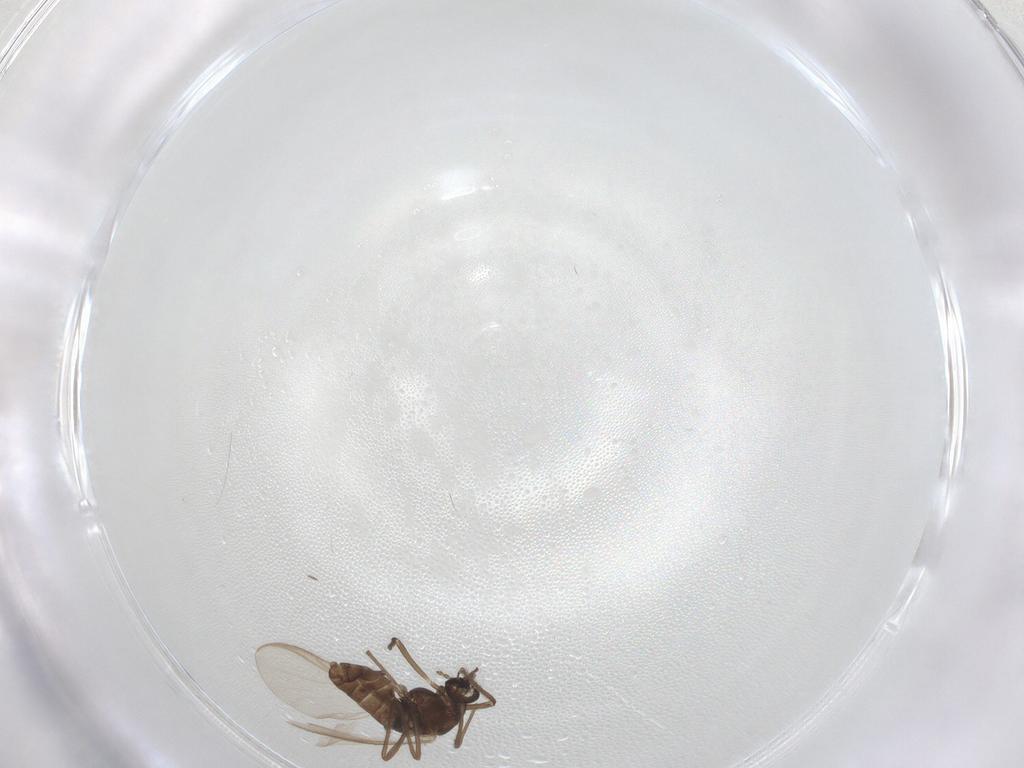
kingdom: Animalia
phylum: Arthropoda
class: Insecta
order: Diptera
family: Chironomidae
